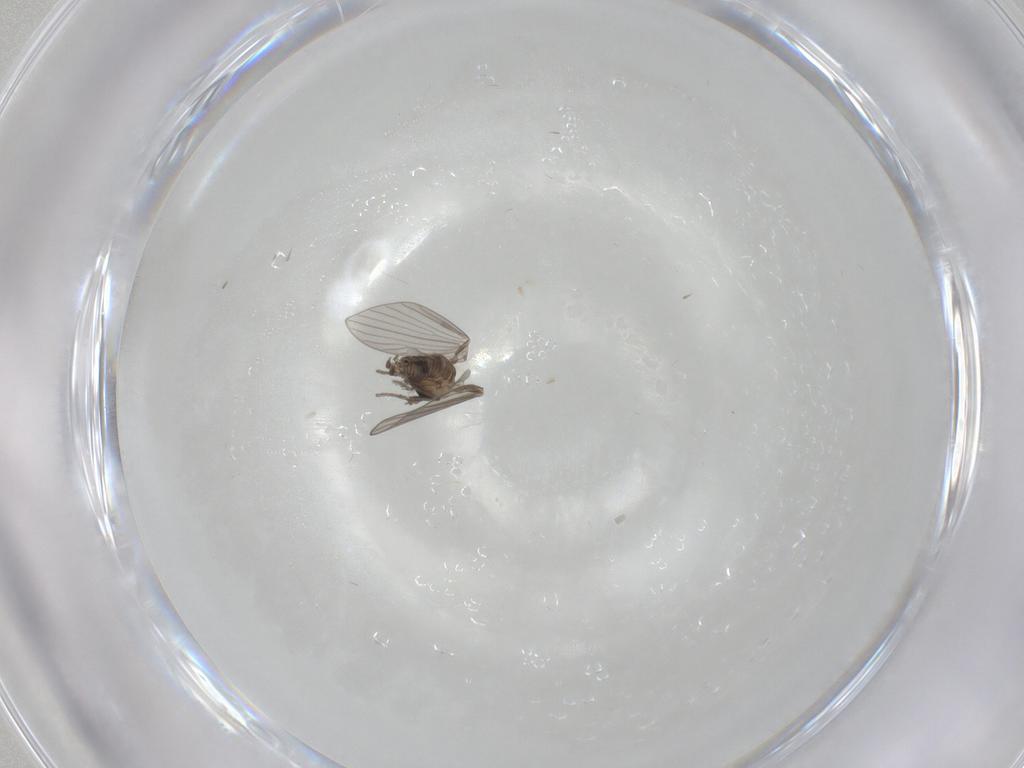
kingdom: Animalia
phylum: Arthropoda
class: Insecta
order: Diptera
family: Psychodidae
